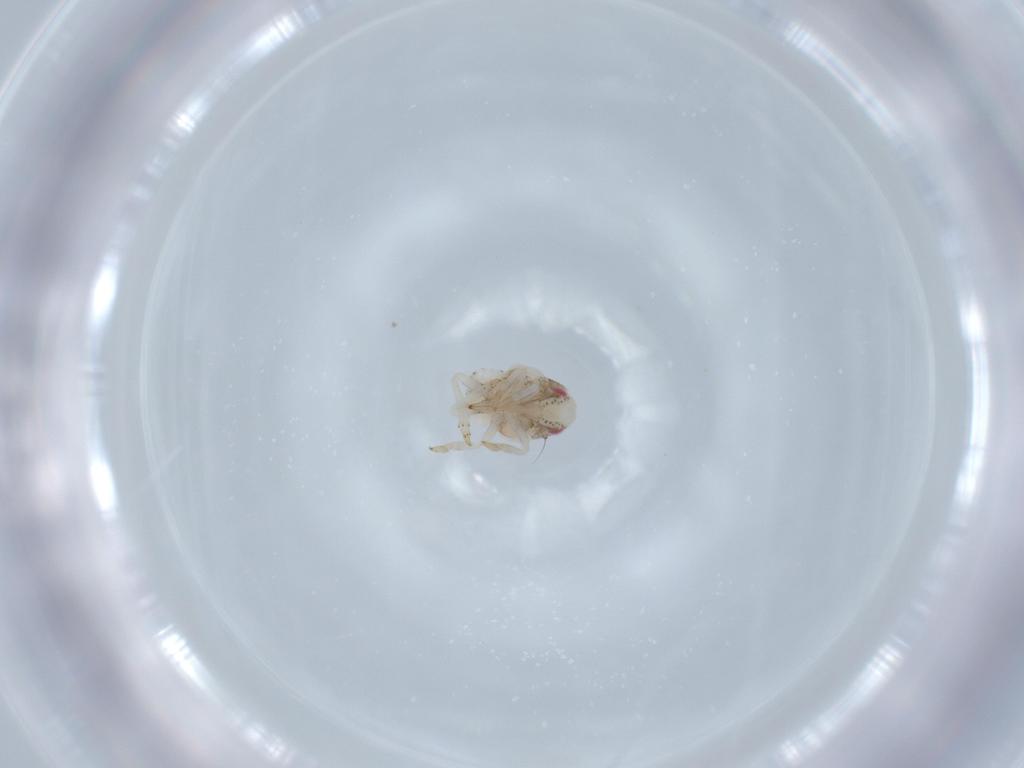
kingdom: Animalia
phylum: Arthropoda
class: Insecta
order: Hemiptera
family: Acanaloniidae
